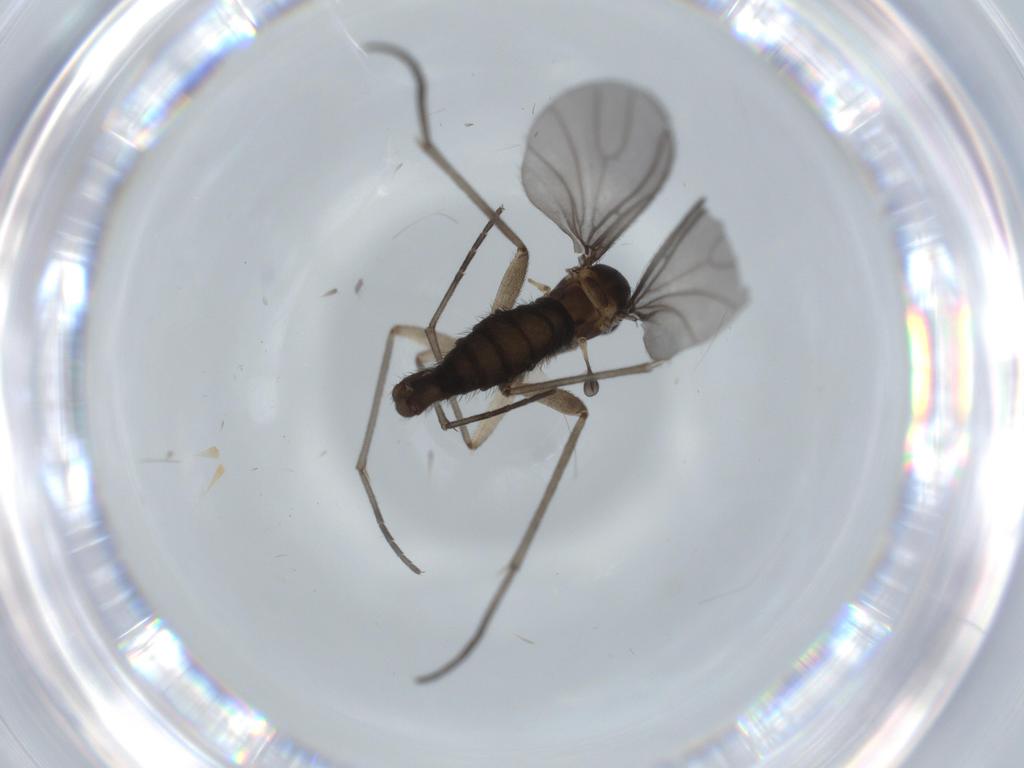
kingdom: Animalia
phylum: Arthropoda
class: Insecta
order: Diptera
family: Sciaridae
